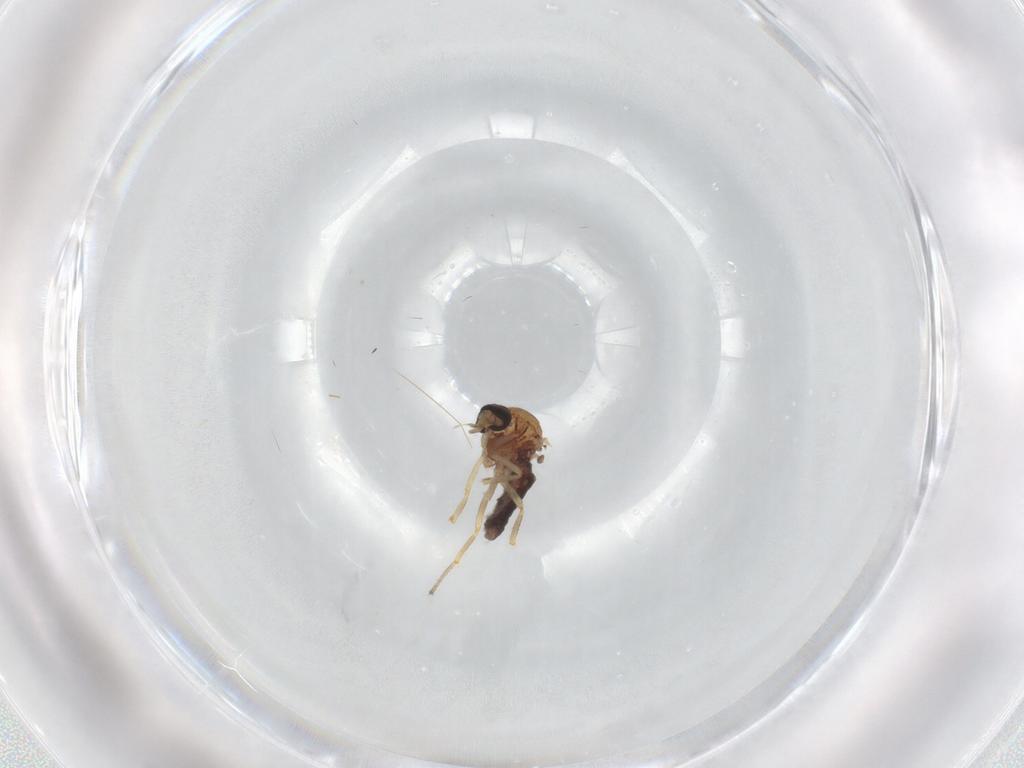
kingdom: Animalia
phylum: Arthropoda
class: Insecta
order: Diptera
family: Ceratopogonidae
